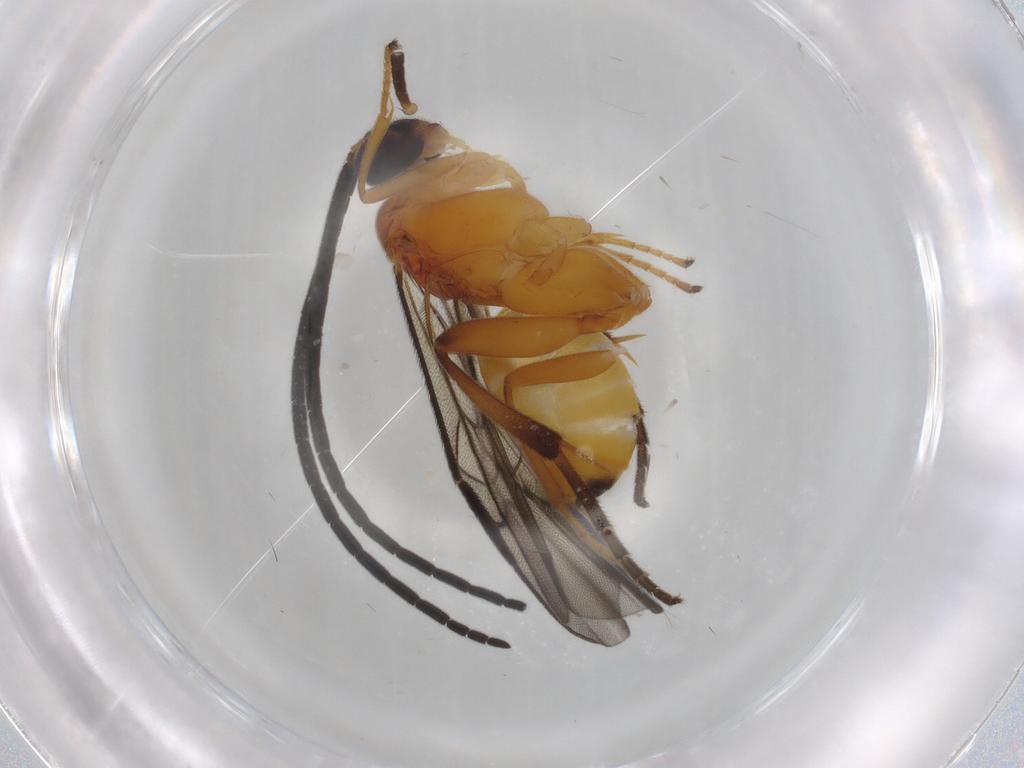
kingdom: Animalia
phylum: Arthropoda
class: Insecta
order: Hymenoptera
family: Braconidae
